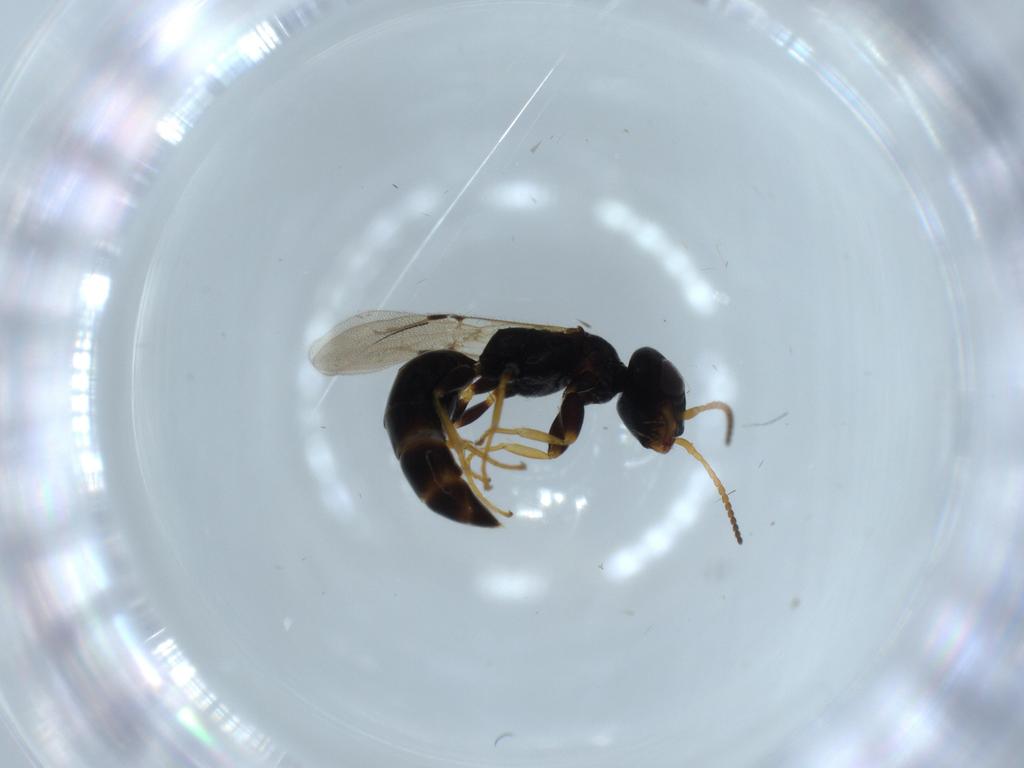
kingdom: Animalia
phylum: Arthropoda
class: Insecta
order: Hymenoptera
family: Bethylidae
